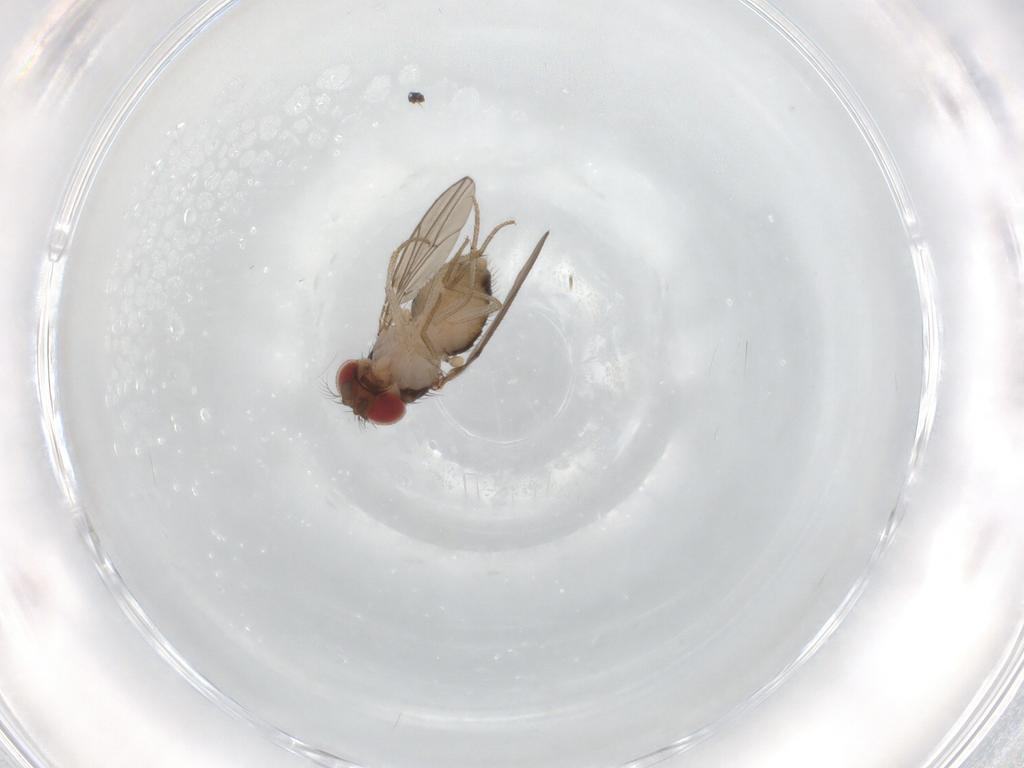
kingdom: Animalia
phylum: Arthropoda
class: Insecta
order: Diptera
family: Drosophilidae
